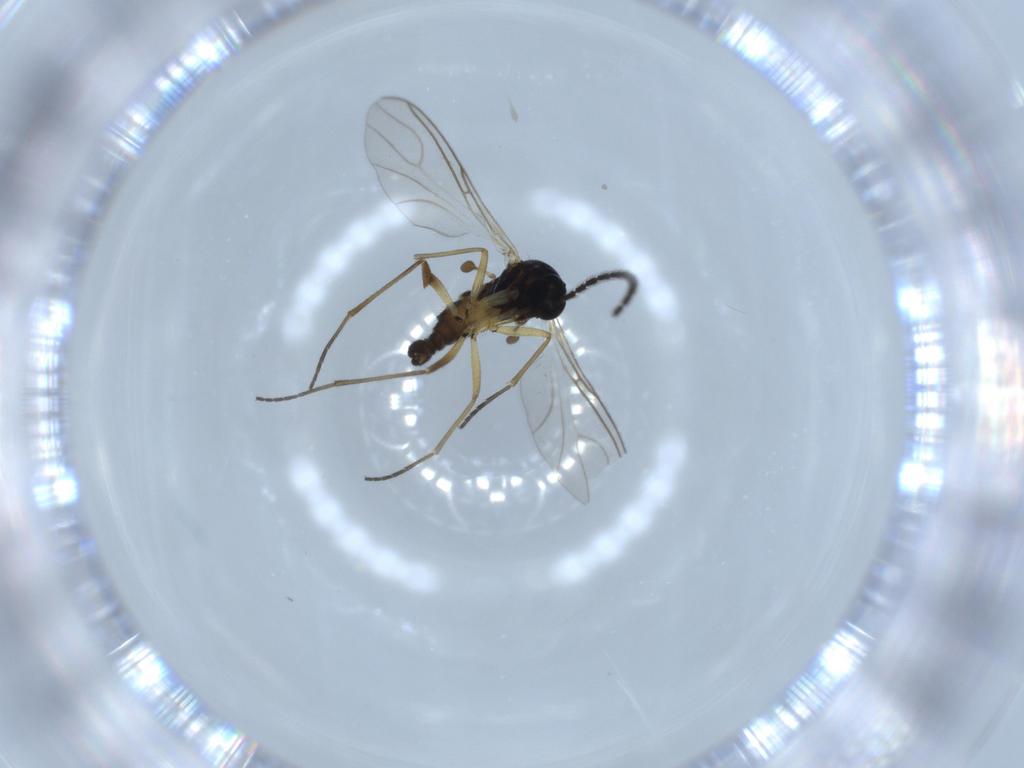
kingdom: Animalia
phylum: Arthropoda
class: Insecta
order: Diptera
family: Sciaridae
